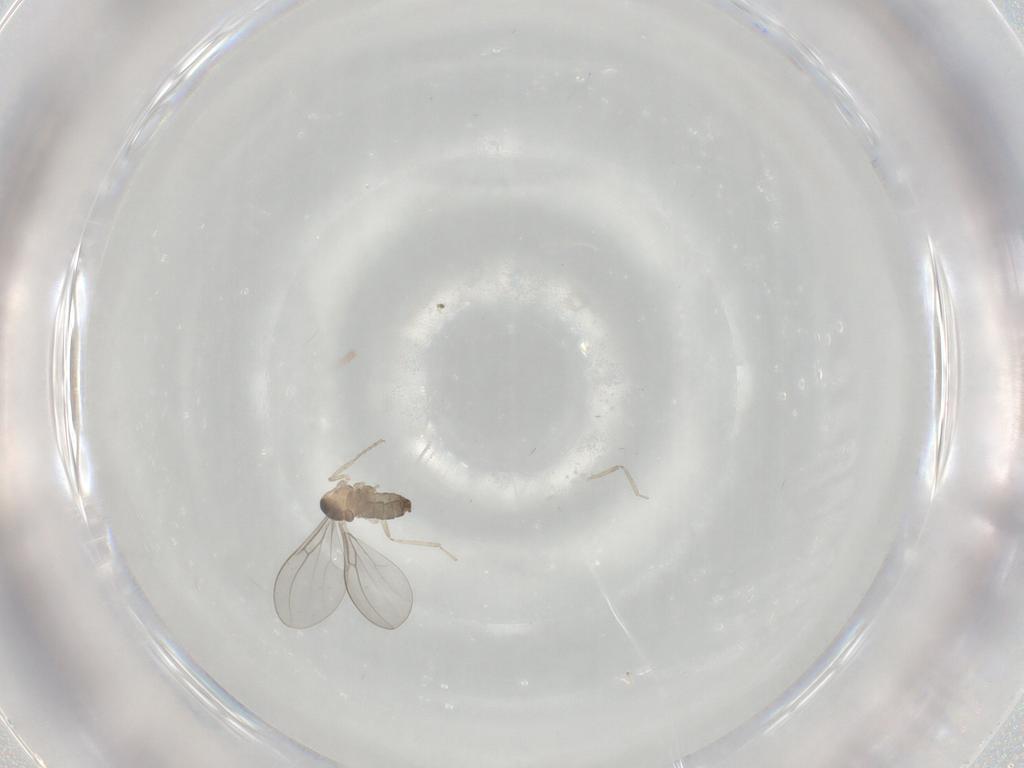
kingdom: Animalia
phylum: Arthropoda
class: Insecta
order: Diptera
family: Cecidomyiidae
